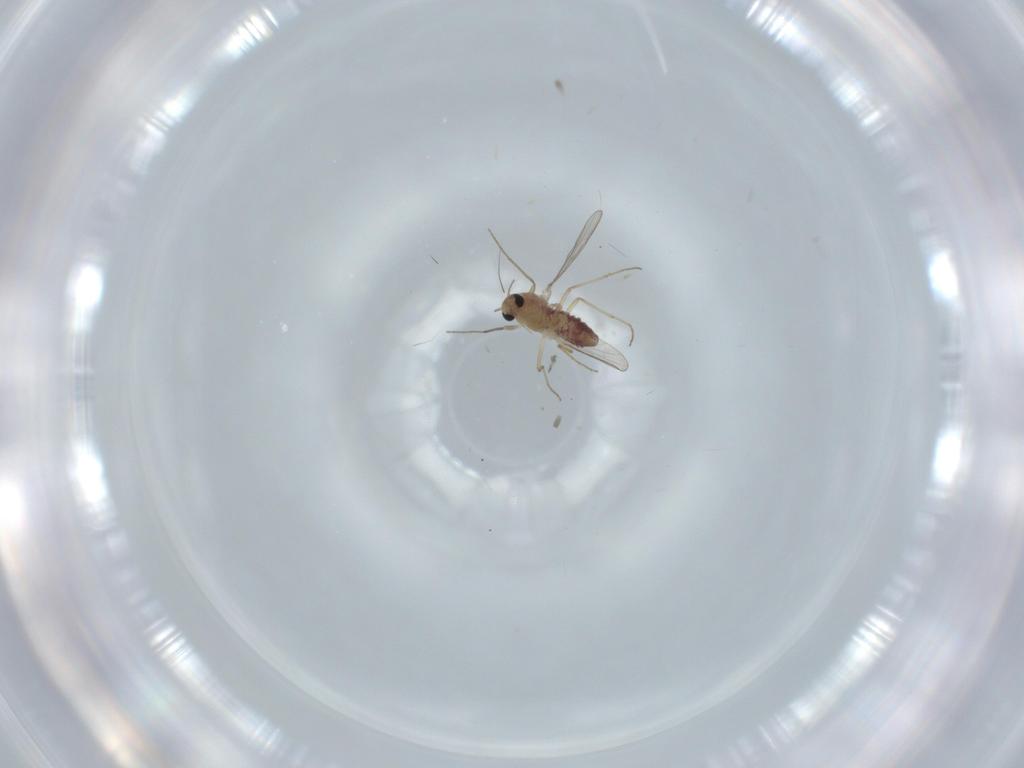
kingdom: Animalia
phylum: Arthropoda
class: Insecta
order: Diptera
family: Chironomidae
